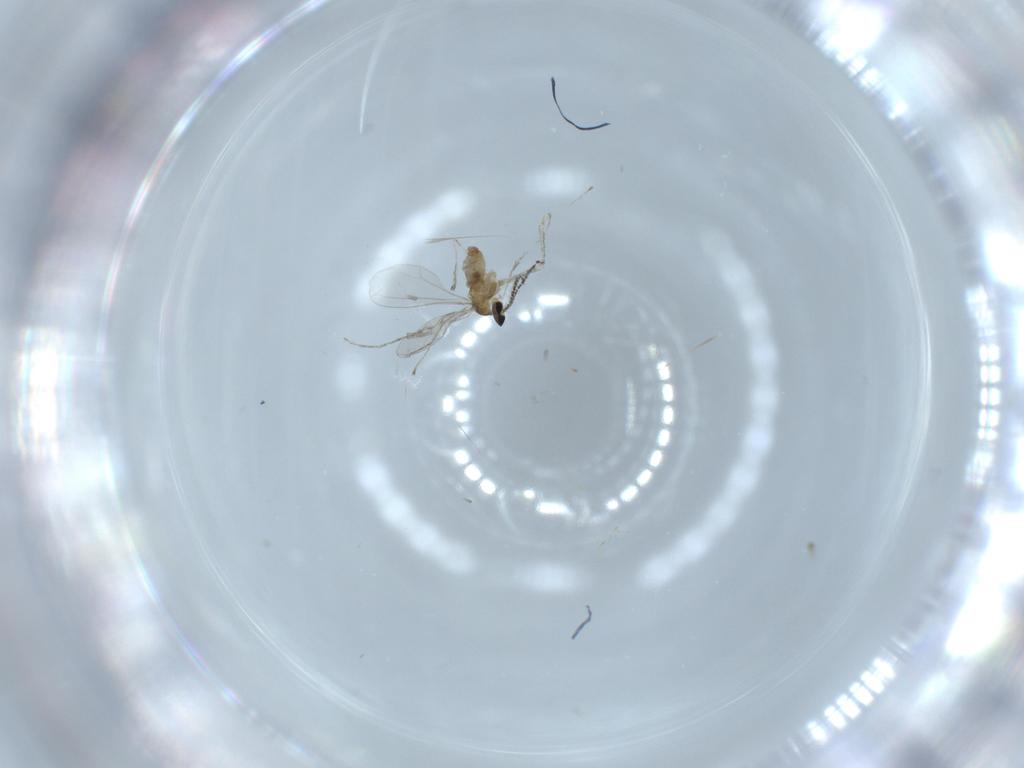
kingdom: Animalia
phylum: Arthropoda
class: Insecta
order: Diptera
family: Cecidomyiidae
